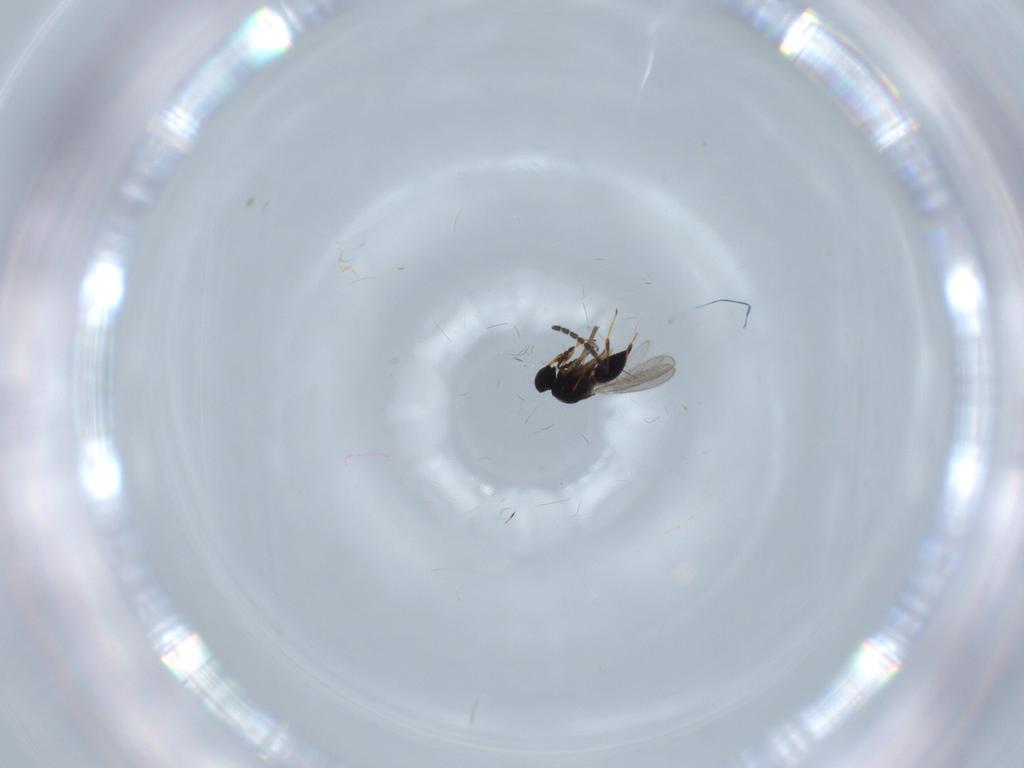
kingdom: Animalia
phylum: Arthropoda
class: Insecta
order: Hymenoptera
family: Platygastridae
